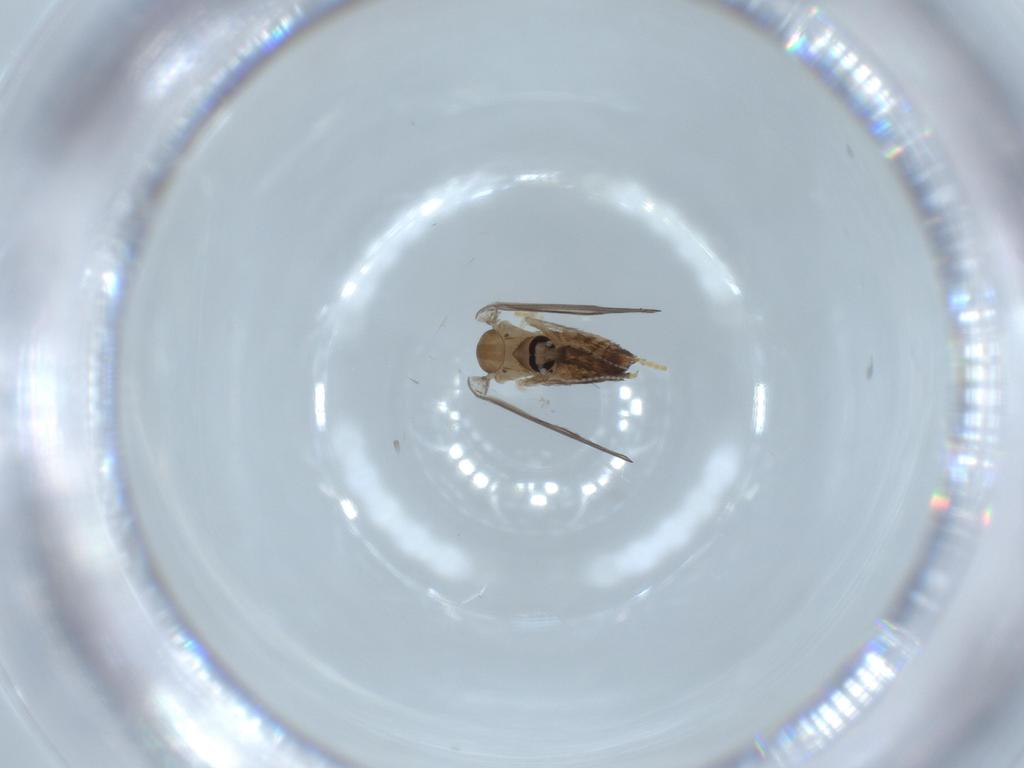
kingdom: Animalia
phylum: Arthropoda
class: Insecta
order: Diptera
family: Psychodidae
